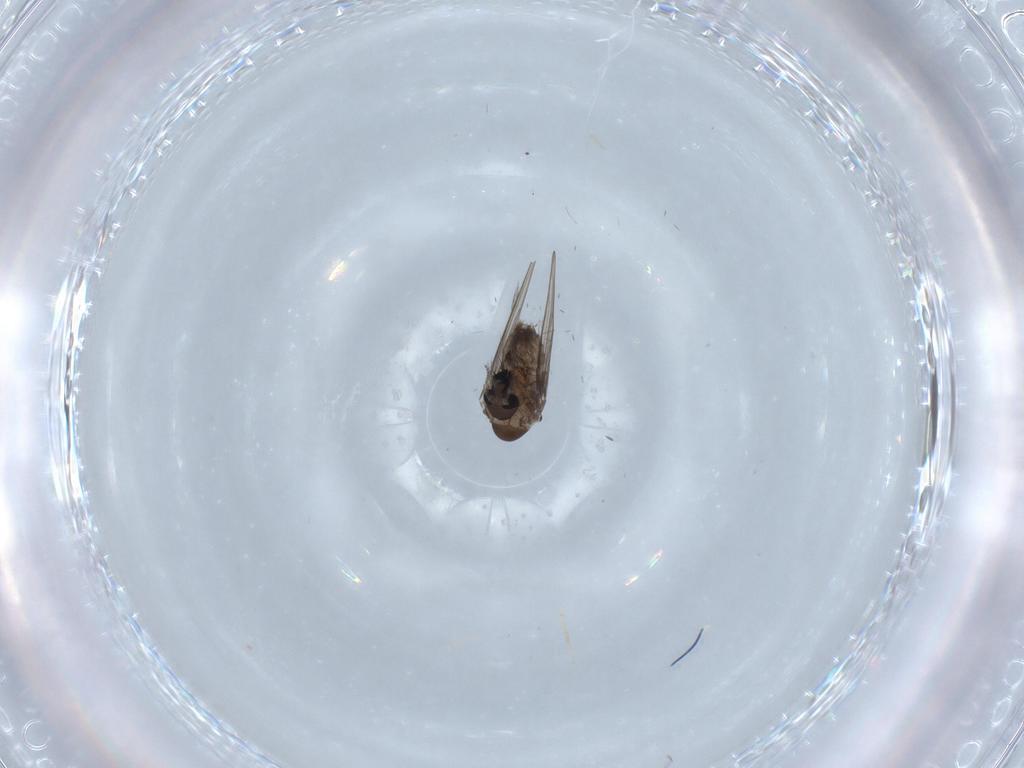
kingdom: Animalia
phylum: Arthropoda
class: Insecta
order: Diptera
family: Psychodidae
